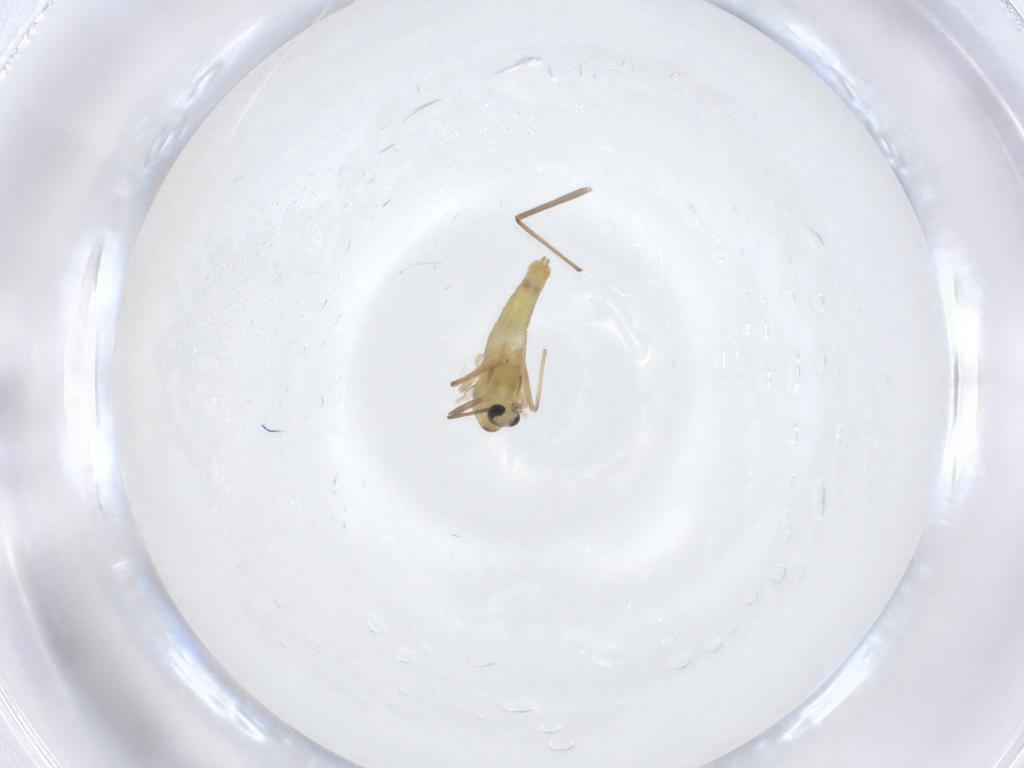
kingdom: Animalia
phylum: Arthropoda
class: Insecta
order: Diptera
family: Chironomidae
